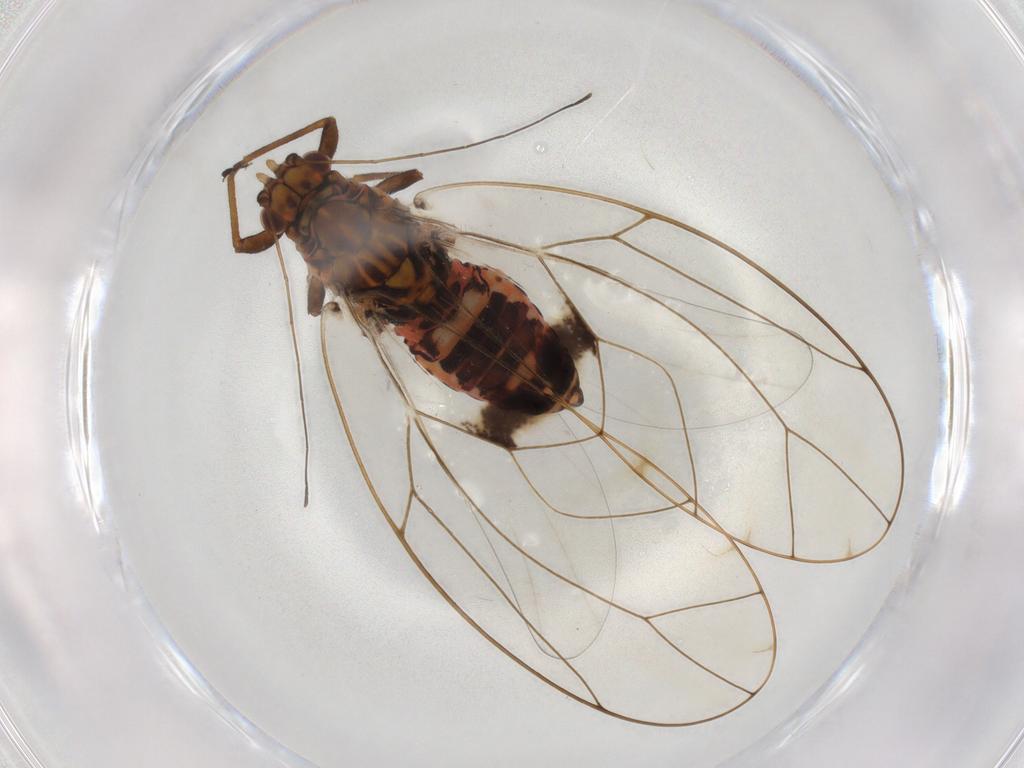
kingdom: Animalia
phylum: Arthropoda
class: Insecta
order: Hemiptera
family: Triozidae
